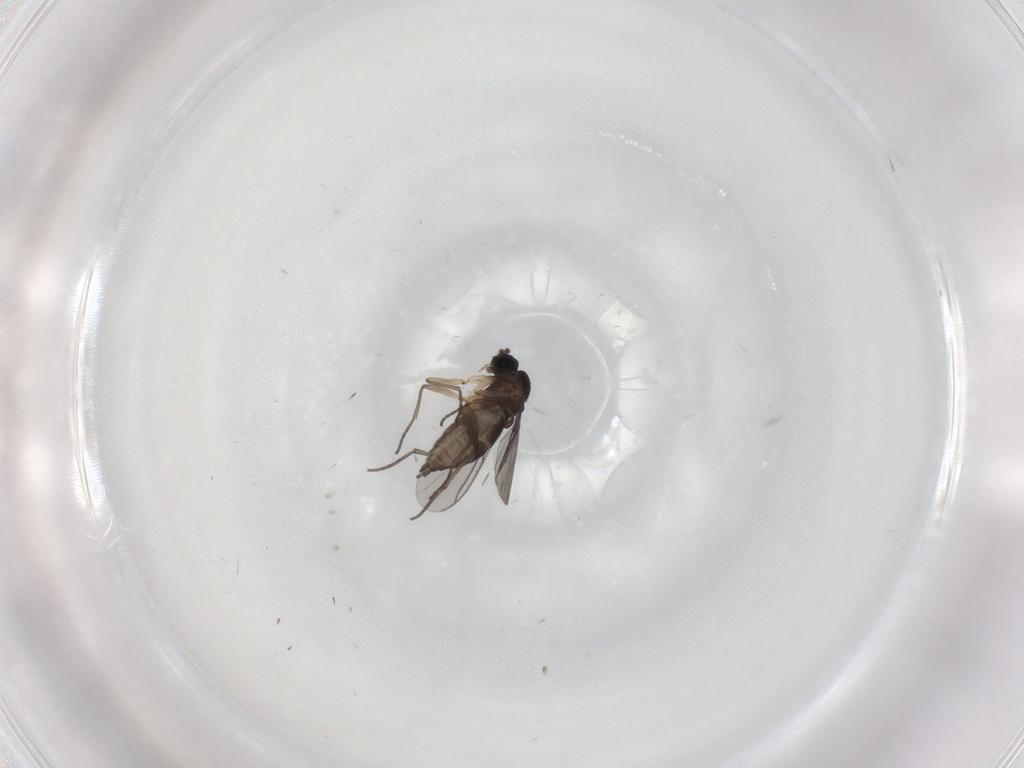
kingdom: Animalia
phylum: Arthropoda
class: Insecta
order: Diptera
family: Sciaridae
